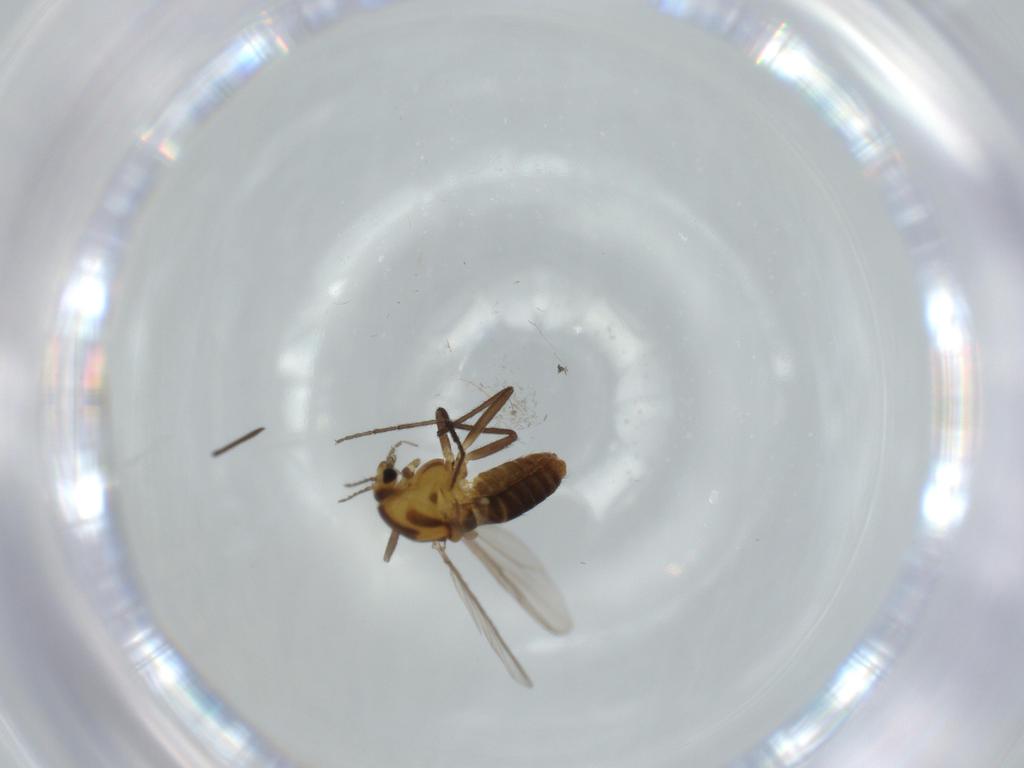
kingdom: Animalia
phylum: Arthropoda
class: Insecta
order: Diptera
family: Chironomidae
